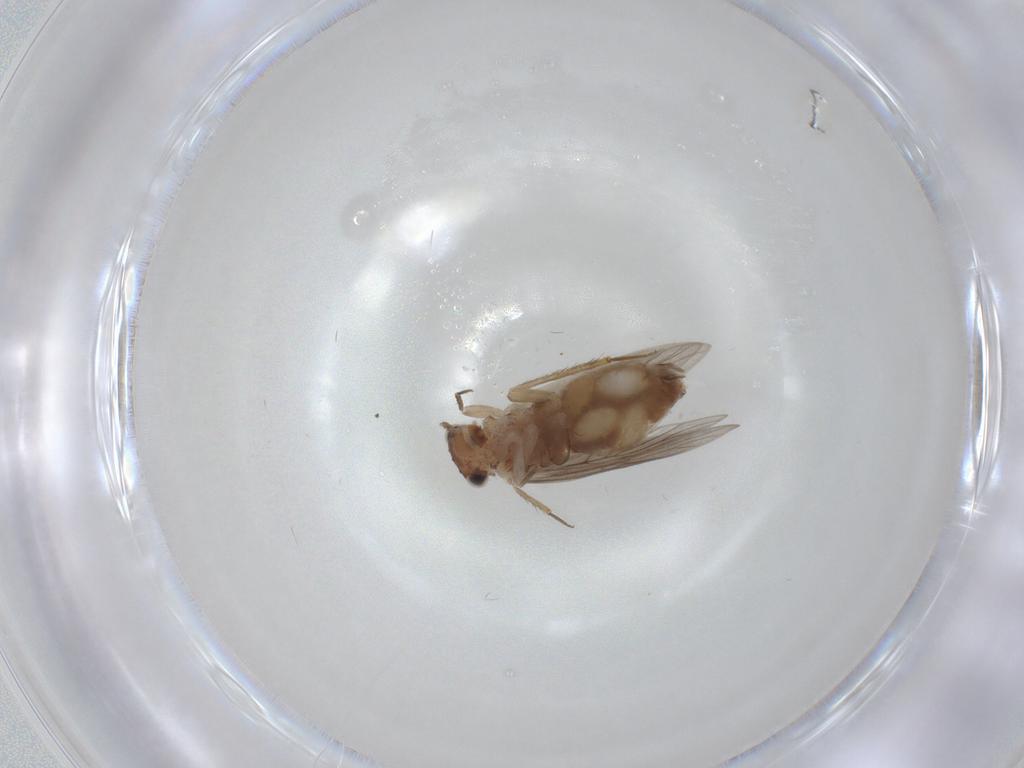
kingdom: Animalia
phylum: Arthropoda
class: Insecta
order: Psocodea
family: Lepidopsocidae
